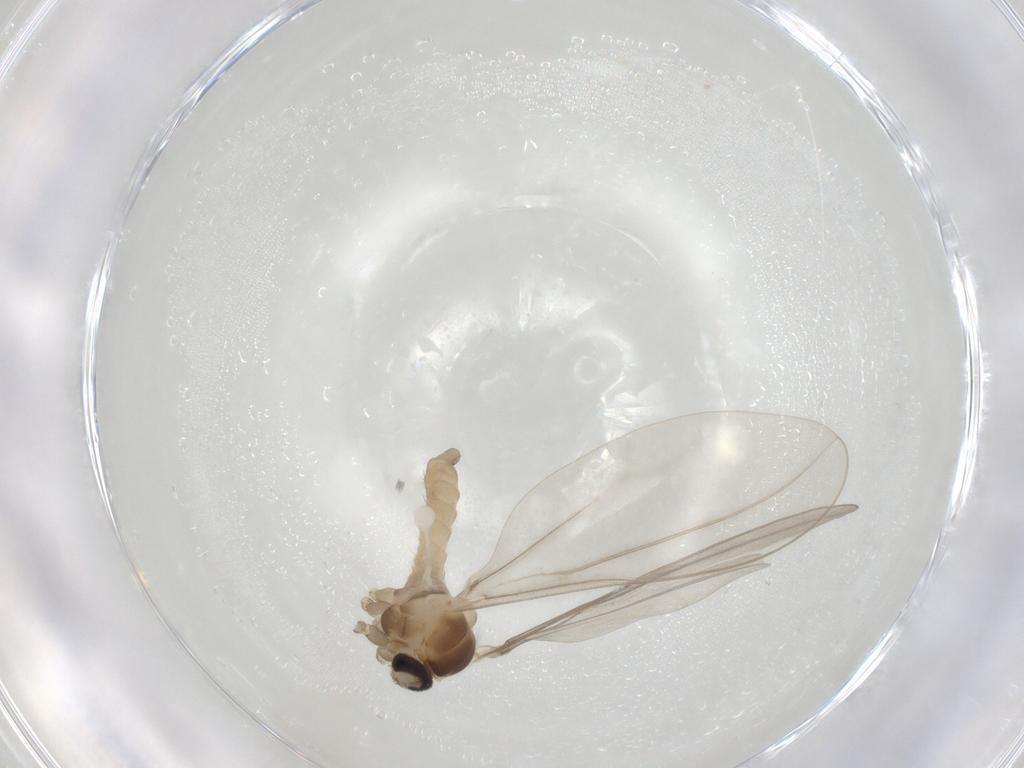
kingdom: Animalia
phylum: Arthropoda
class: Insecta
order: Diptera
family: Cecidomyiidae
